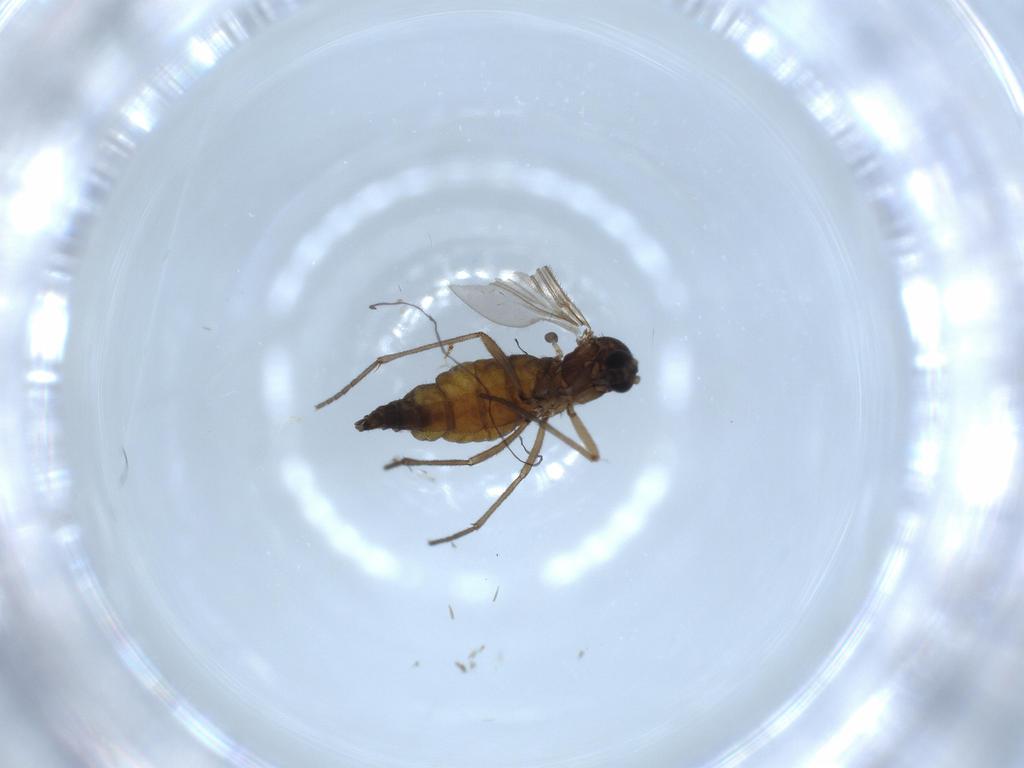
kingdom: Animalia
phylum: Arthropoda
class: Insecta
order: Diptera
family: Sciaridae
